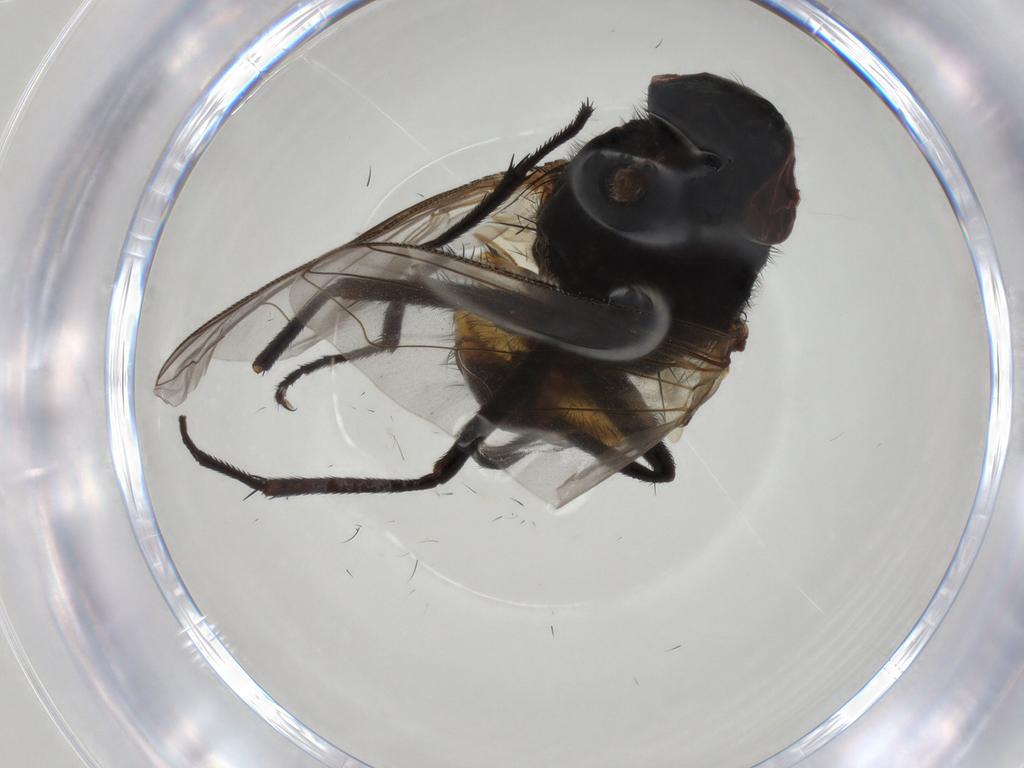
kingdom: Animalia
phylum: Arthropoda
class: Insecta
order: Diptera
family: Muscidae
